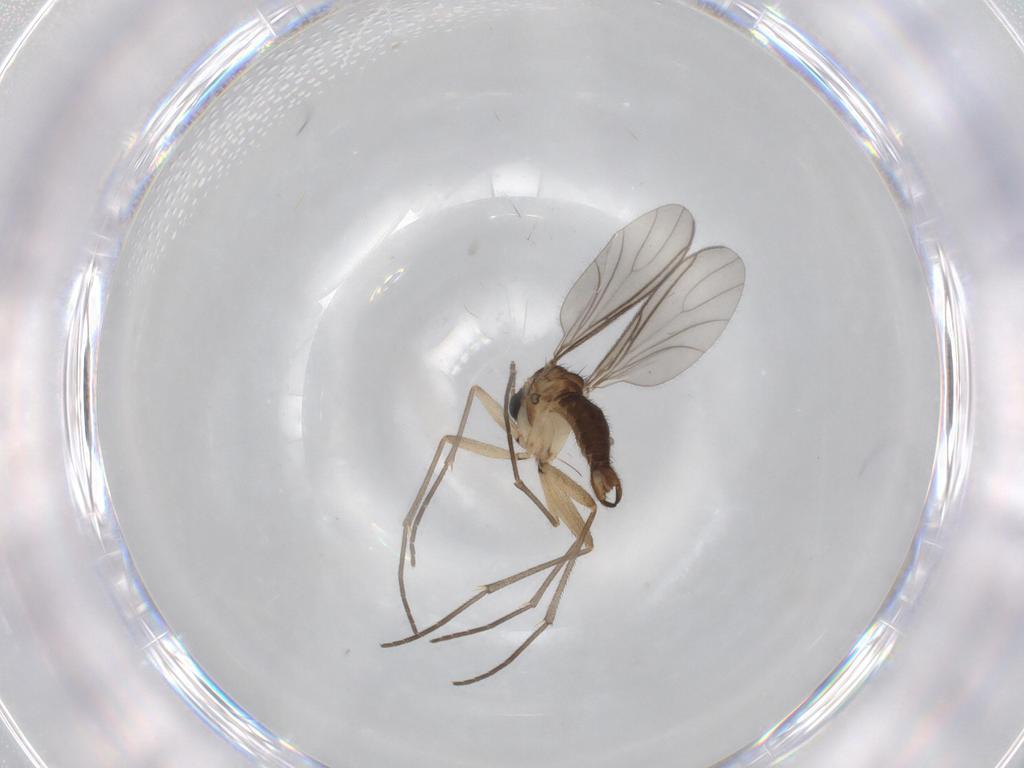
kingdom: Animalia
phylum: Arthropoda
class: Insecta
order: Diptera
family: Sciaridae
